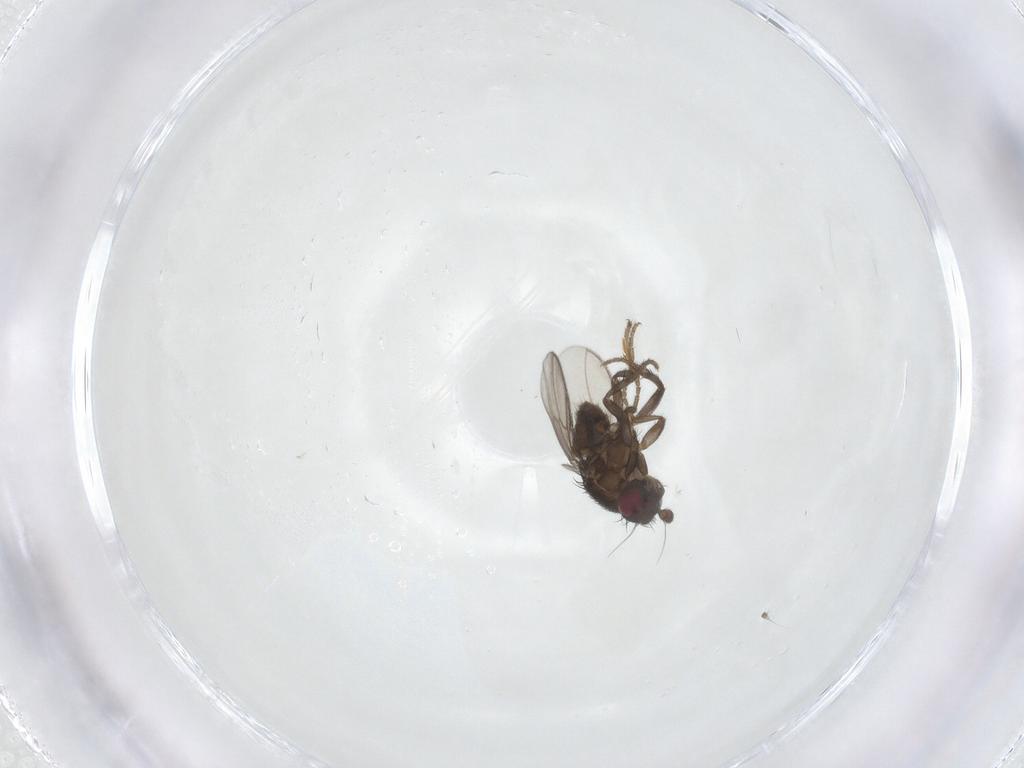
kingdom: Animalia
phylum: Arthropoda
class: Insecta
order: Diptera
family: Sphaeroceridae
